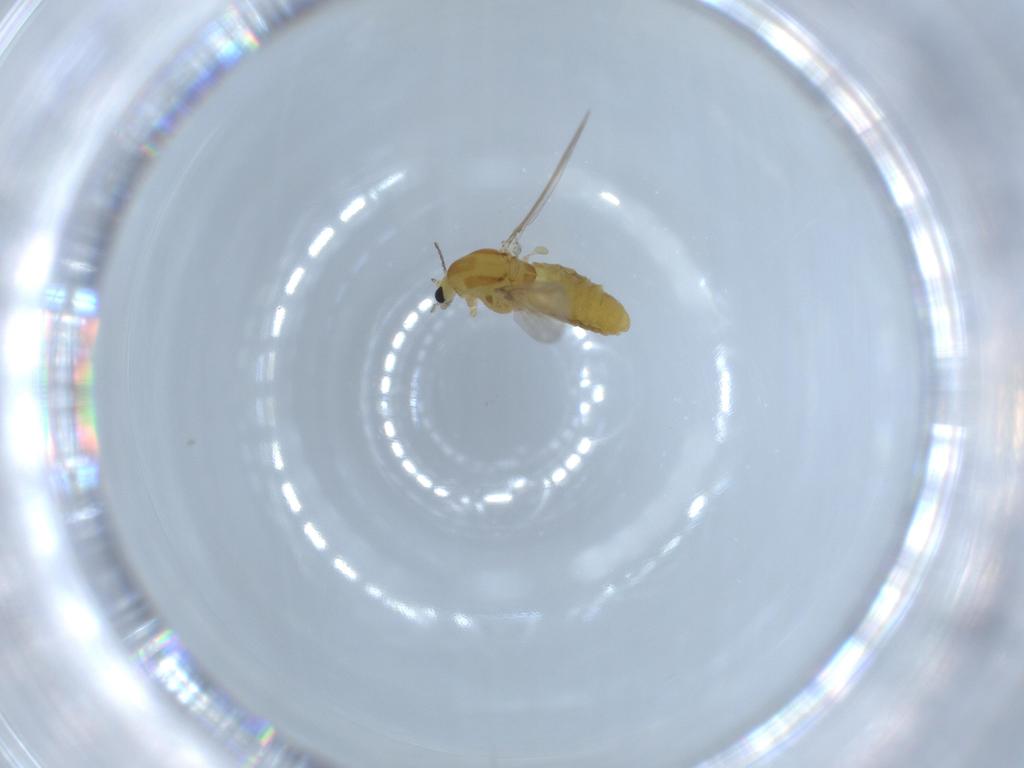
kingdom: Animalia
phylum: Arthropoda
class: Insecta
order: Diptera
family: Chironomidae
